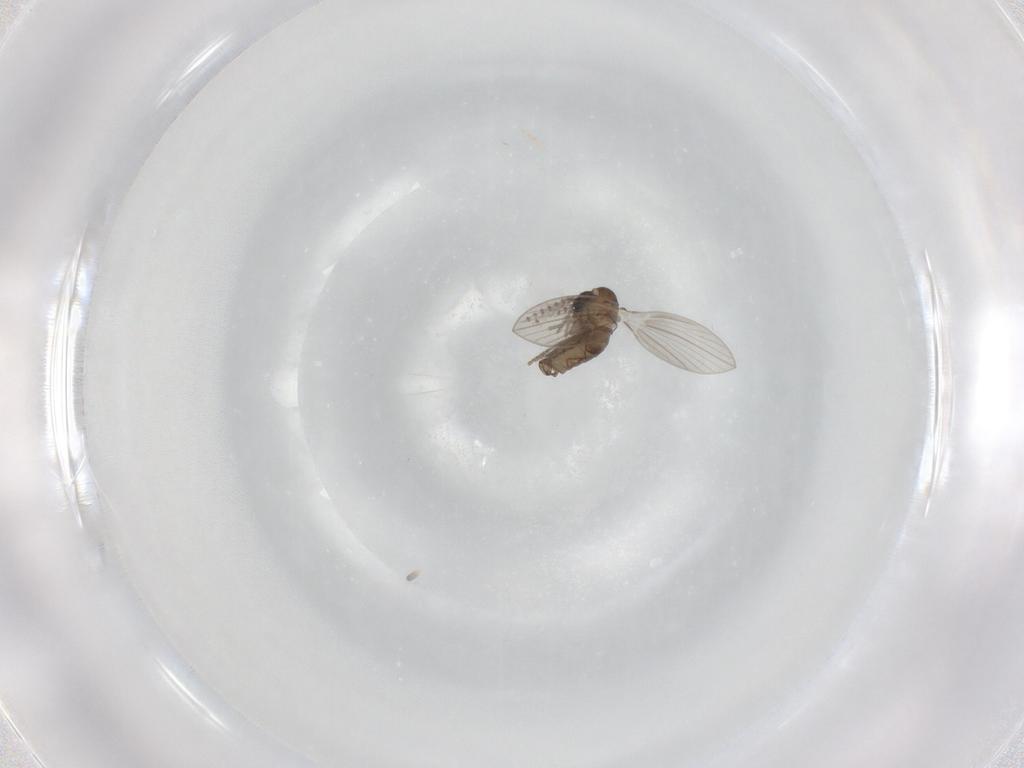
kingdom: Animalia
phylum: Arthropoda
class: Insecta
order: Diptera
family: Psychodidae
